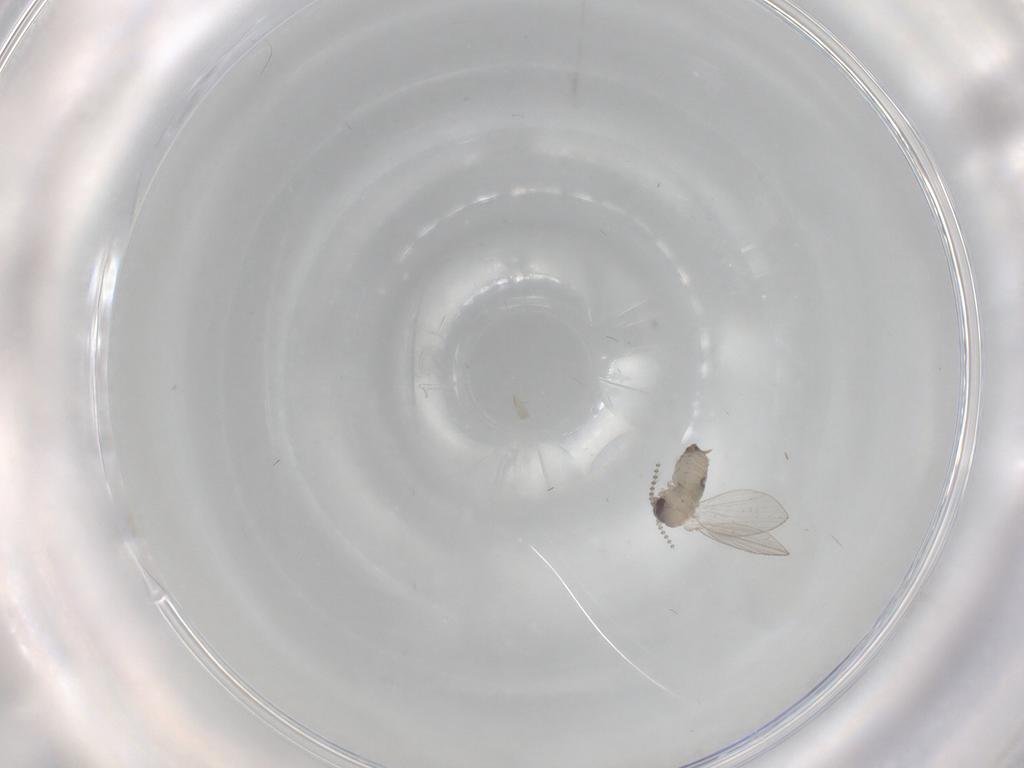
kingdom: Animalia
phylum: Arthropoda
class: Insecta
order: Diptera
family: Psychodidae
